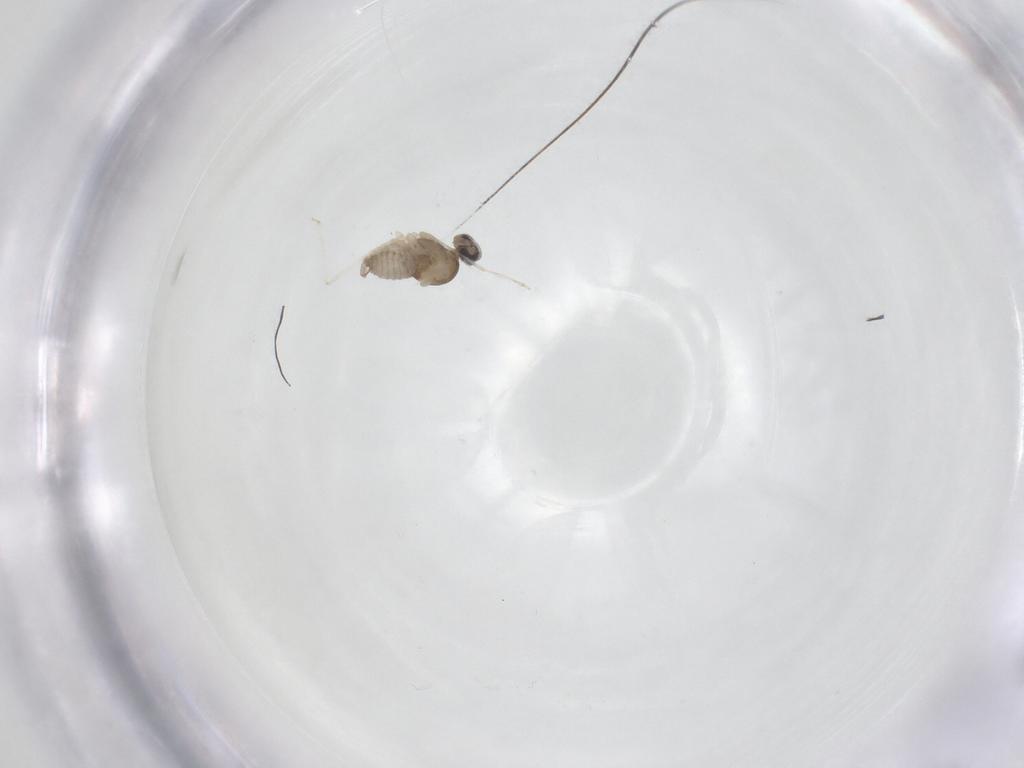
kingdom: Animalia
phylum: Arthropoda
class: Insecta
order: Diptera
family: Cecidomyiidae
